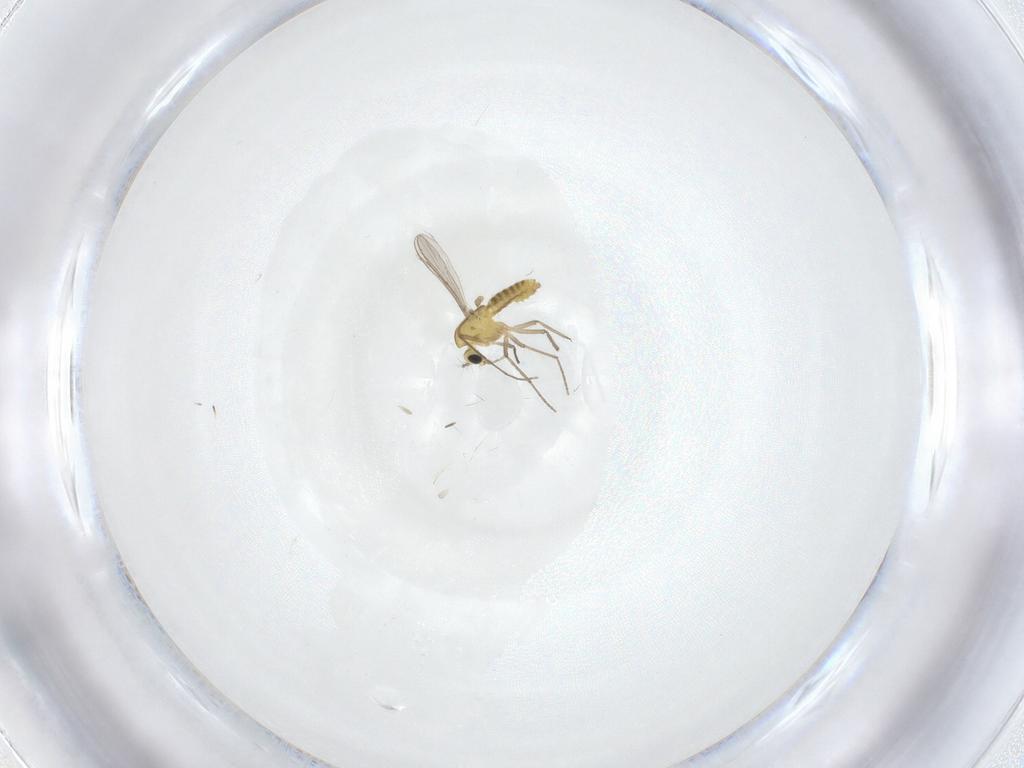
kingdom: Animalia
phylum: Arthropoda
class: Insecta
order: Diptera
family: Chironomidae
